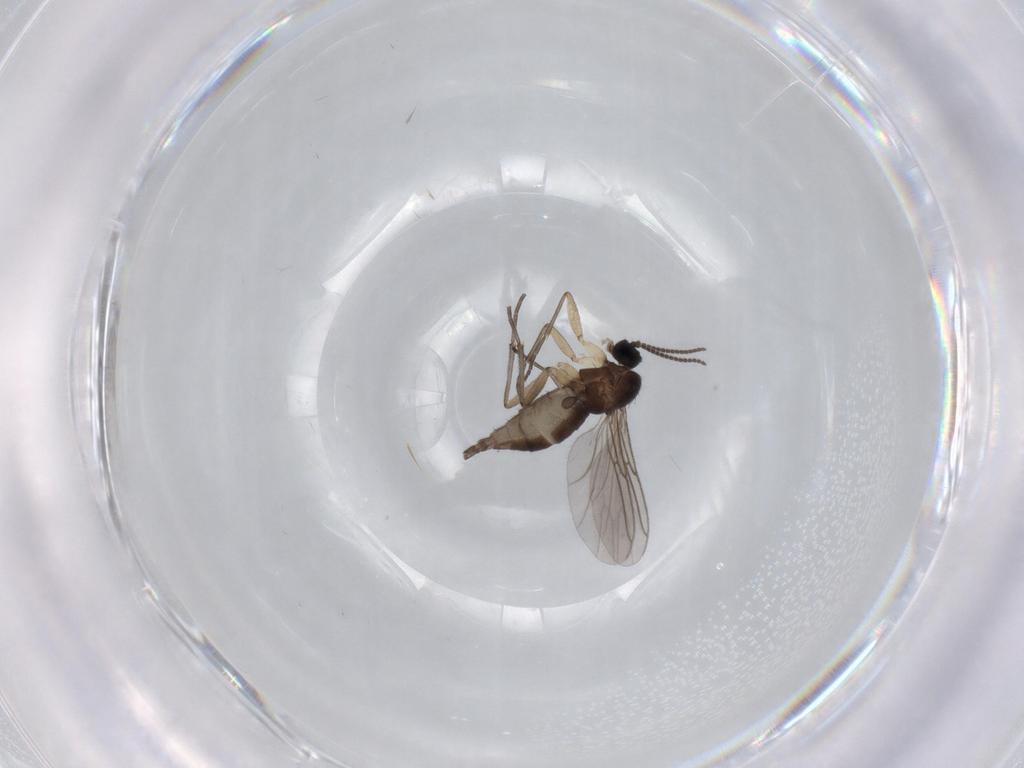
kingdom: Animalia
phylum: Arthropoda
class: Insecta
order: Diptera
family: Sciaridae
